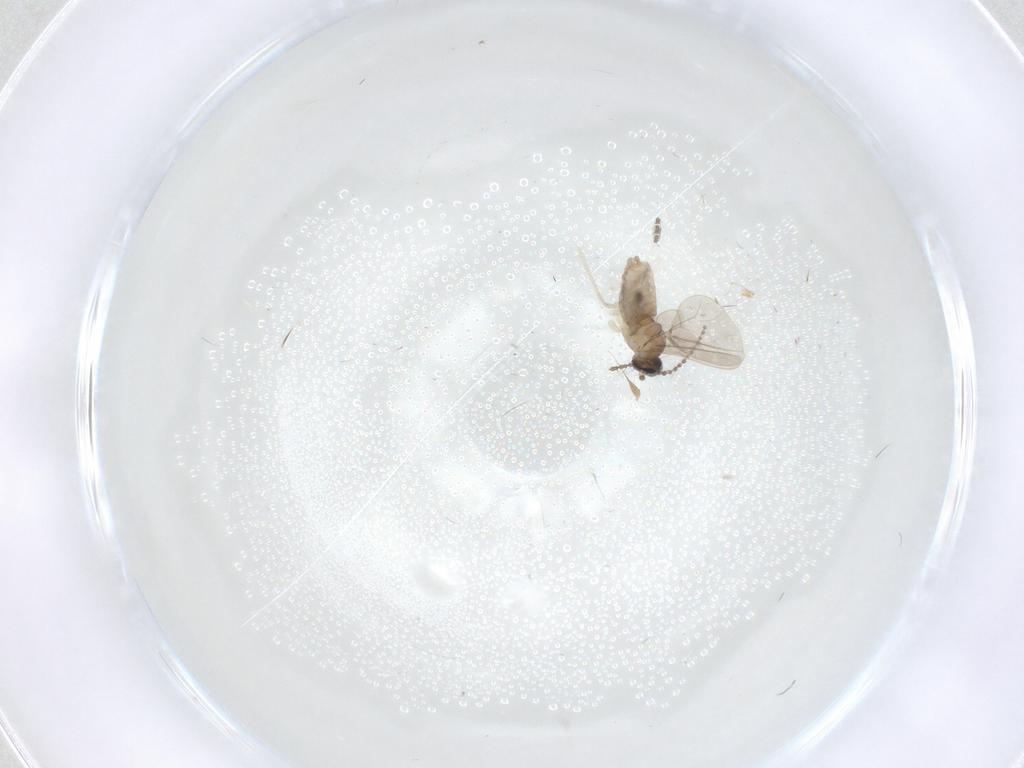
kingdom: Animalia
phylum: Arthropoda
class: Insecta
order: Diptera
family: Cecidomyiidae
